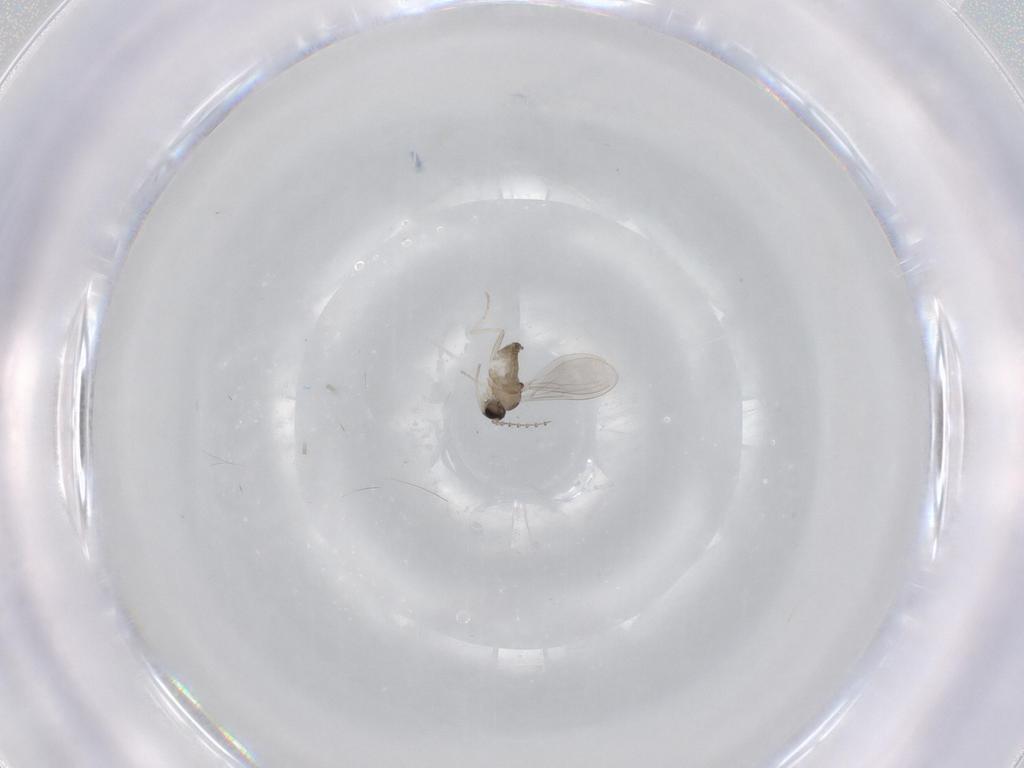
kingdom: Animalia
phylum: Arthropoda
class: Insecta
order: Diptera
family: Cecidomyiidae
